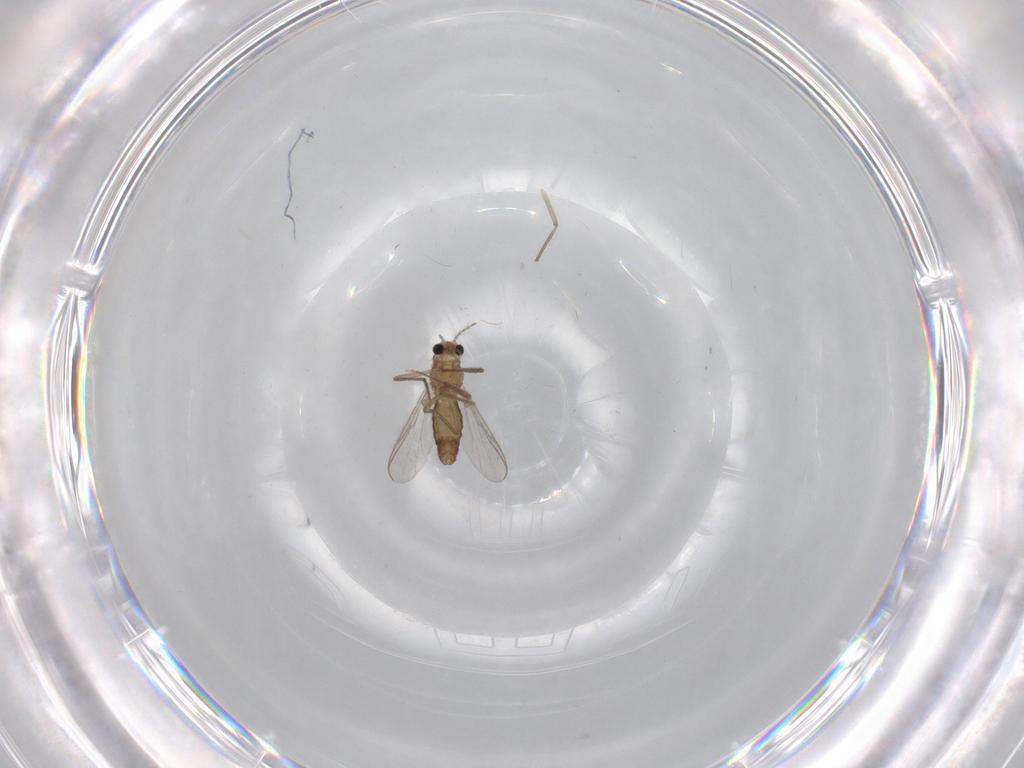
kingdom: Animalia
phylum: Arthropoda
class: Insecta
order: Diptera
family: Chironomidae
